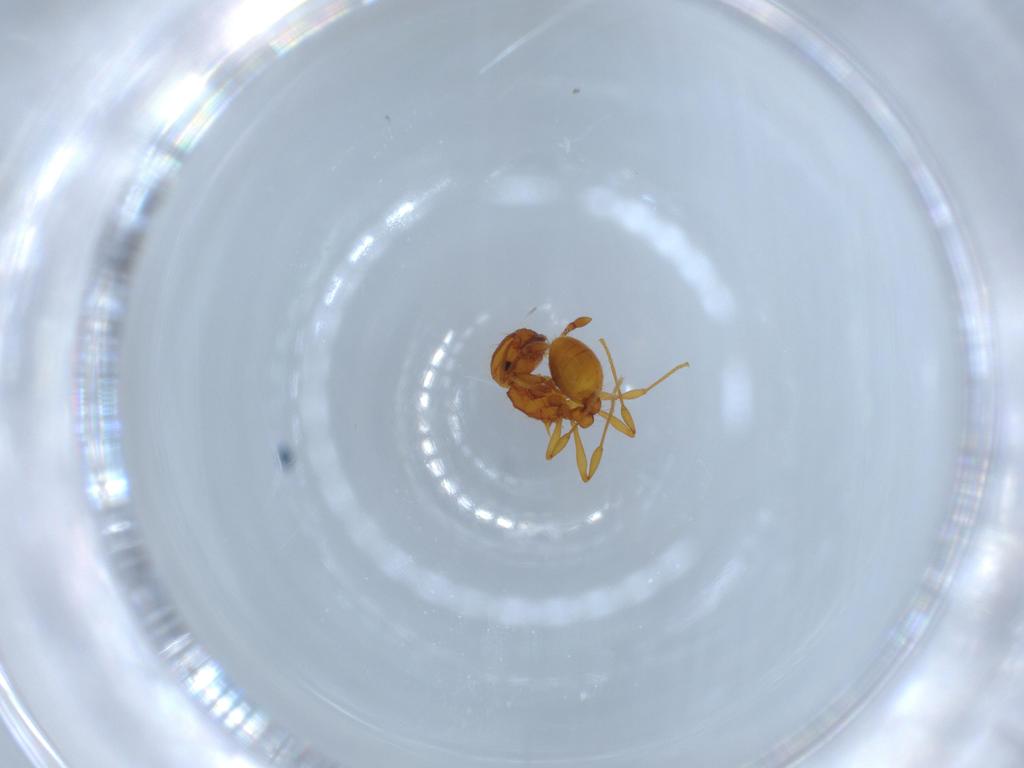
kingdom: Animalia
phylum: Arthropoda
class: Insecta
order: Hymenoptera
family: Formicidae
